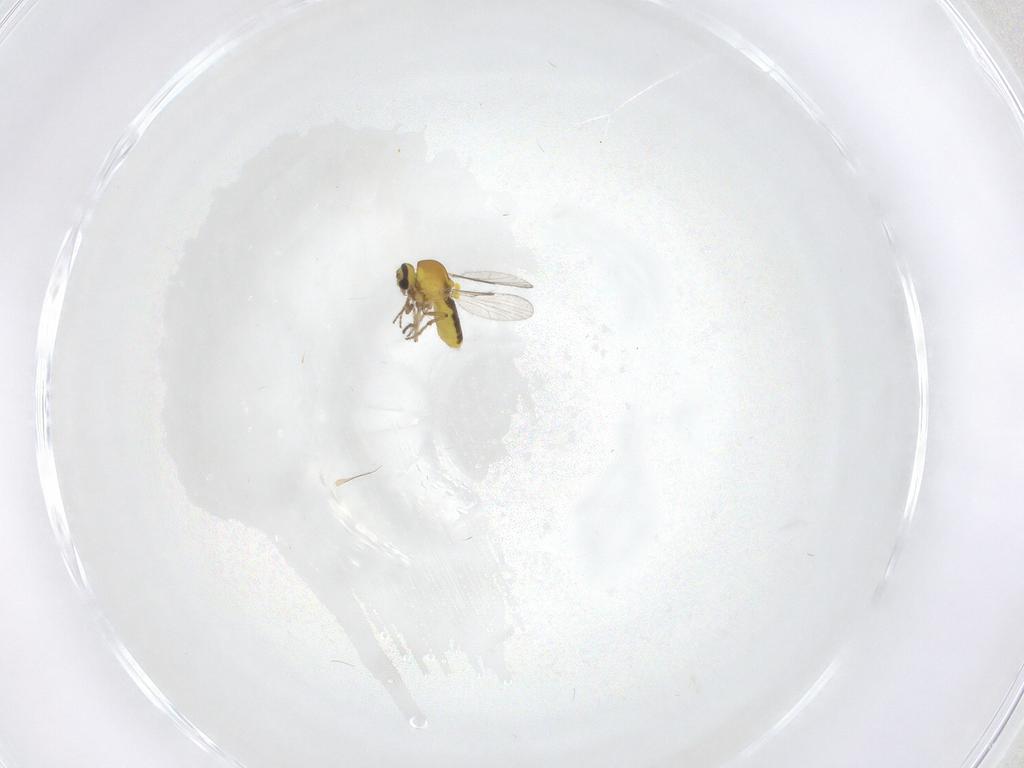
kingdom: Animalia
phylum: Arthropoda
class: Insecta
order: Diptera
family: Ceratopogonidae
